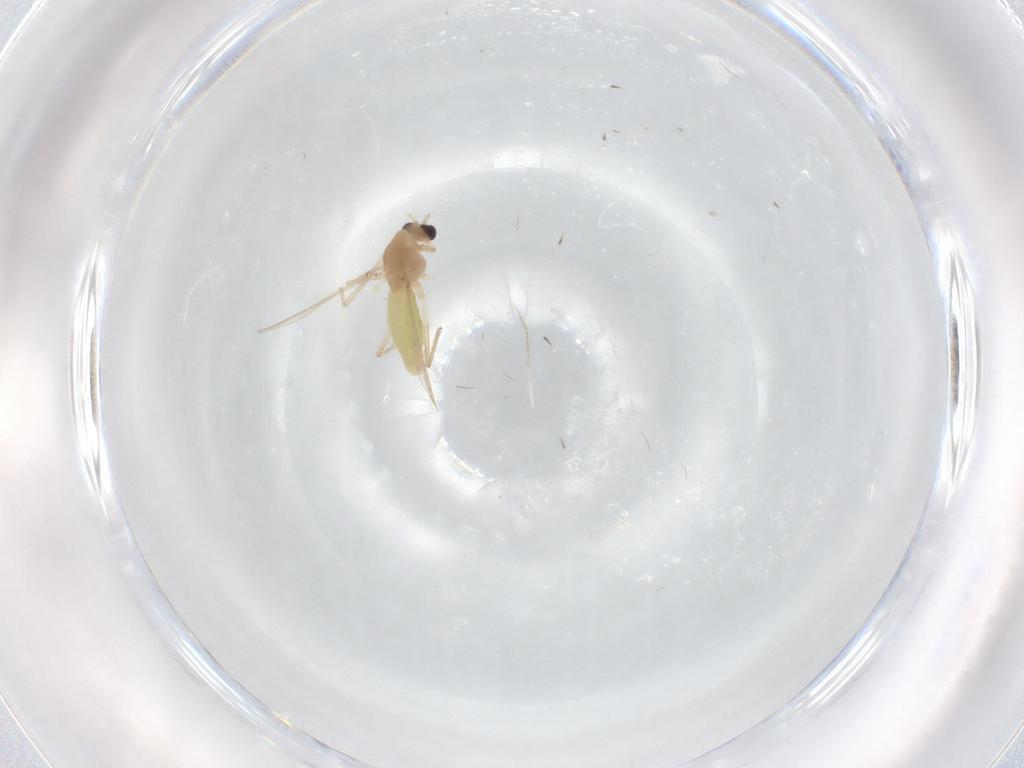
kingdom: Animalia
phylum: Arthropoda
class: Insecta
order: Diptera
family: Chironomidae
